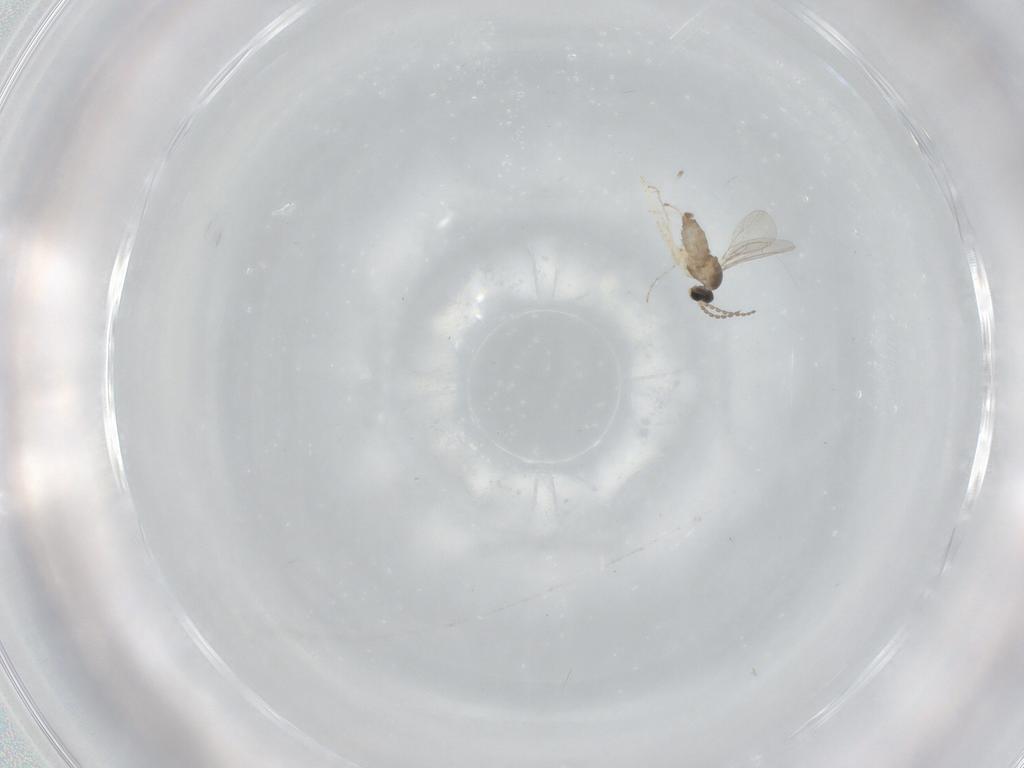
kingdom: Animalia
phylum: Arthropoda
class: Insecta
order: Diptera
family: Cecidomyiidae
